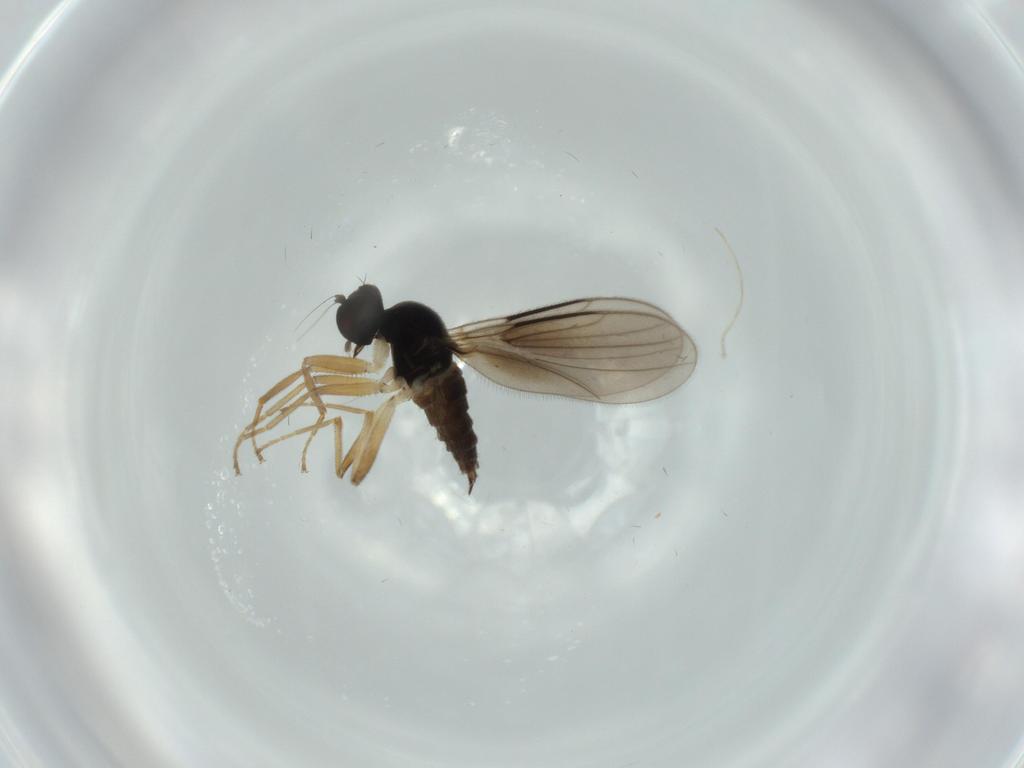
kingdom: Animalia
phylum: Arthropoda
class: Insecta
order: Diptera
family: Hybotidae
